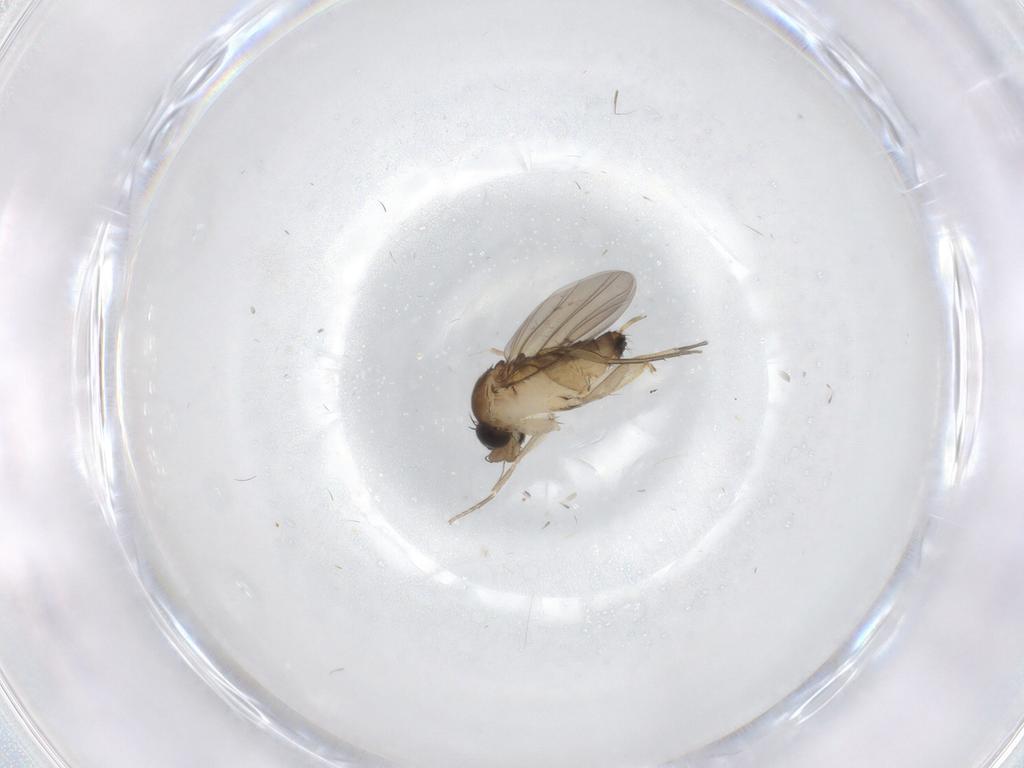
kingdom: Animalia
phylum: Arthropoda
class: Insecta
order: Diptera
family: Phoridae
